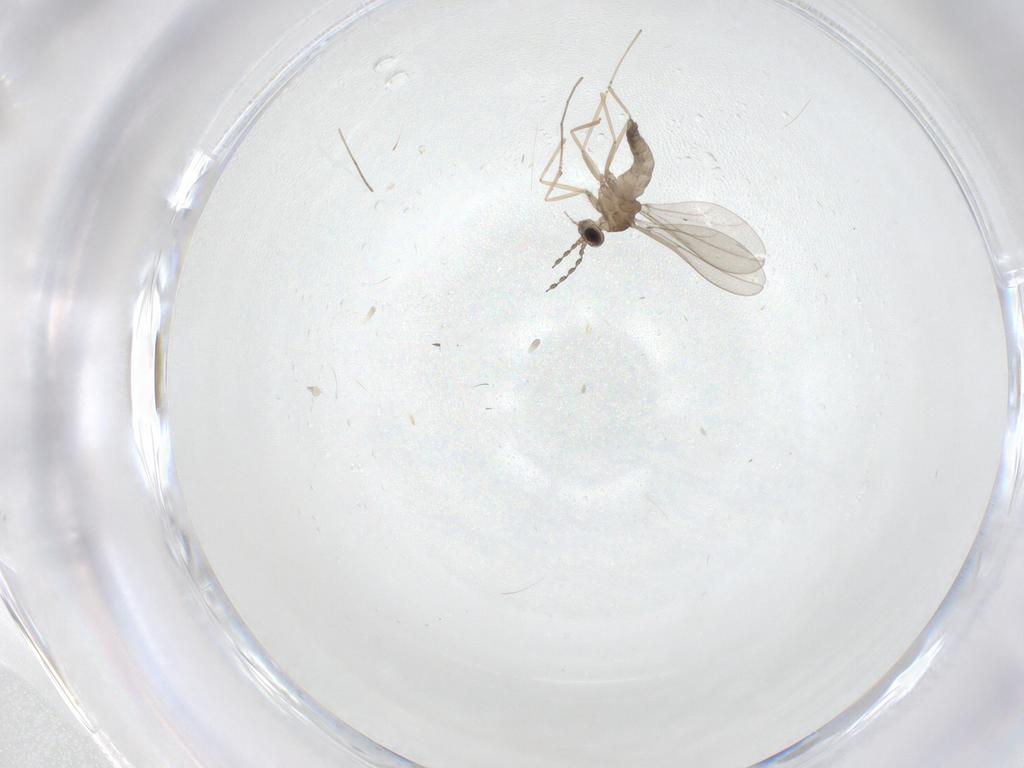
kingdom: Animalia
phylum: Arthropoda
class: Insecta
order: Diptera
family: Cecidomyiidae
